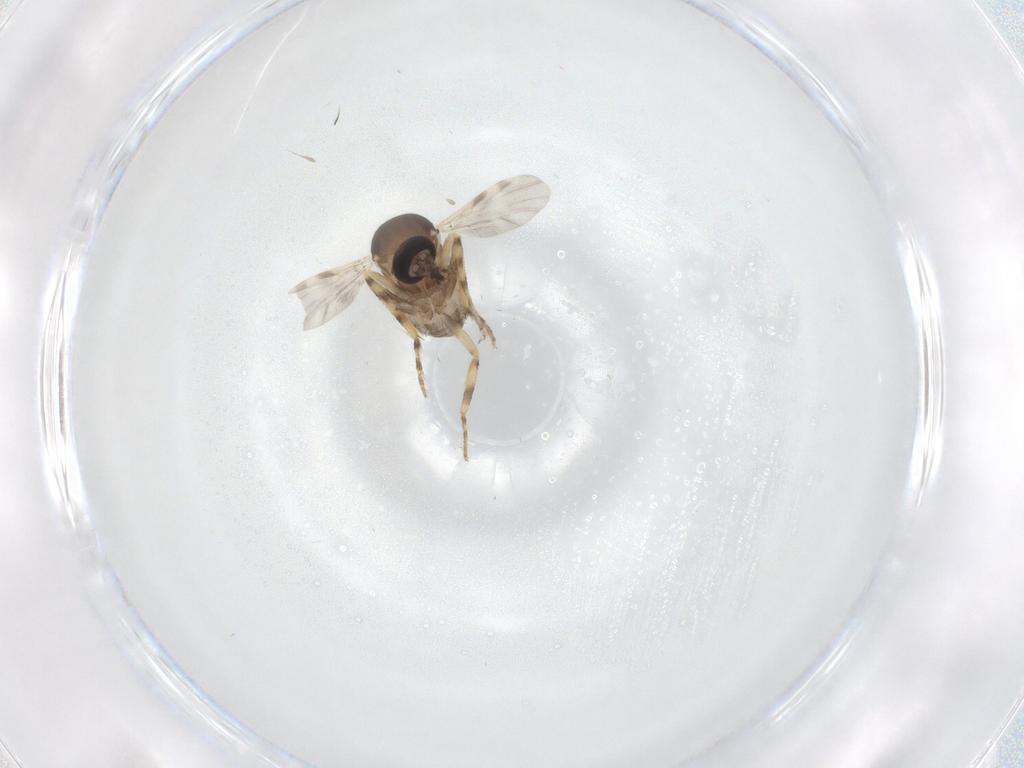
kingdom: Animalia
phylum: Arthropoda
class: Insecta
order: Diptera
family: Ceratopogonidae
